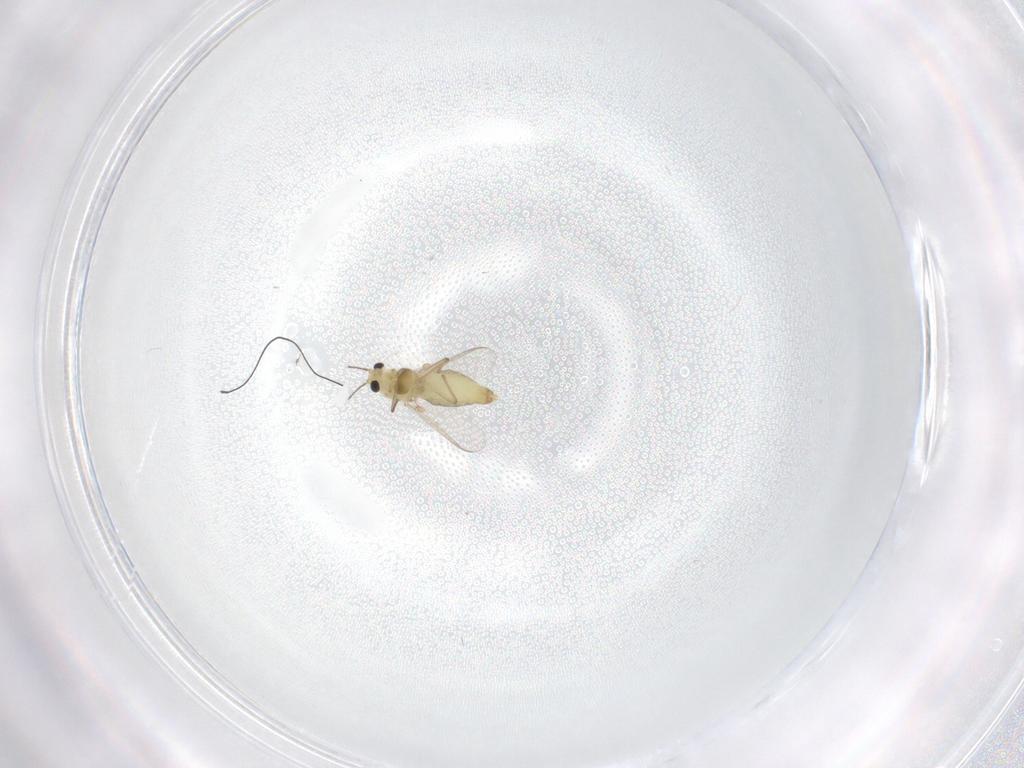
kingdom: Animalia
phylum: Arthropoda
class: Insecta
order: Diptera
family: Chironomidae
